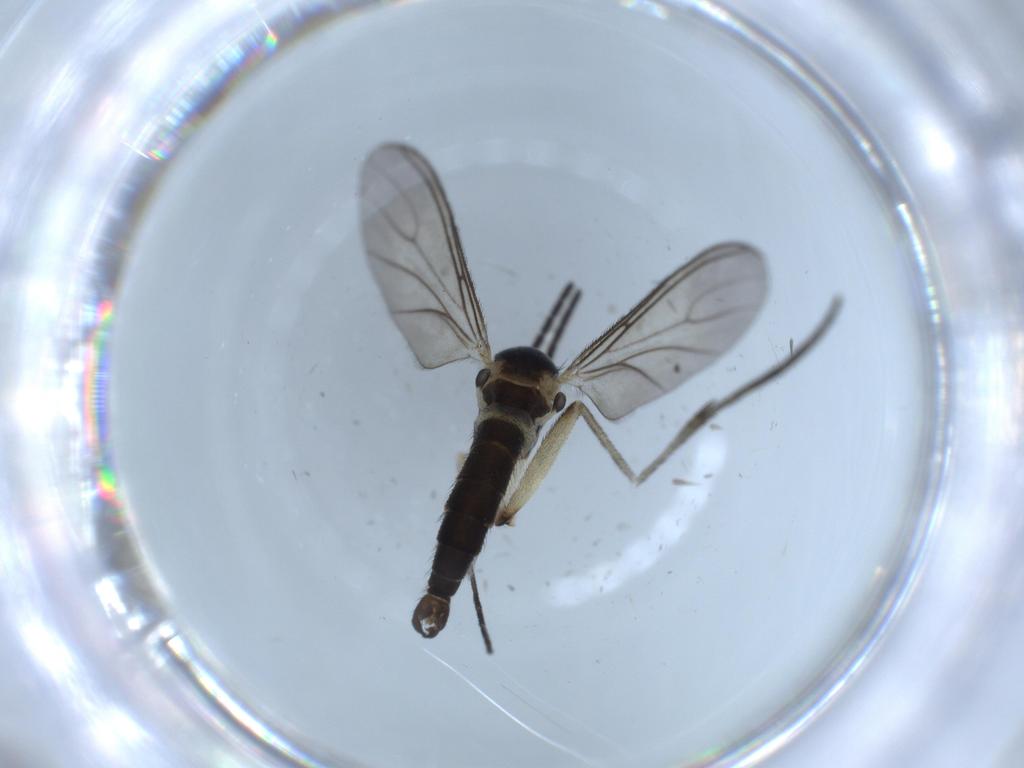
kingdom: Animalia
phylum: Arthropoda
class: Insecta
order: Diptera
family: Sciaridae
